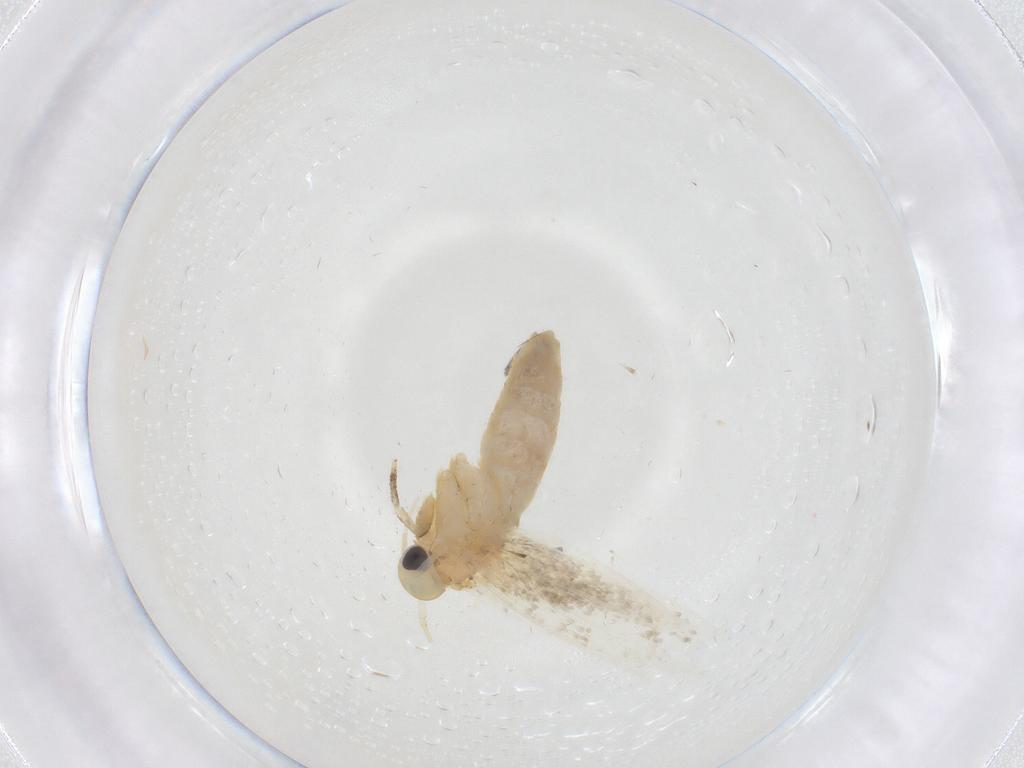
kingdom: Animalia
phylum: Arthropoda
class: Insecta
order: Lepidoptera
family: Erebidae
